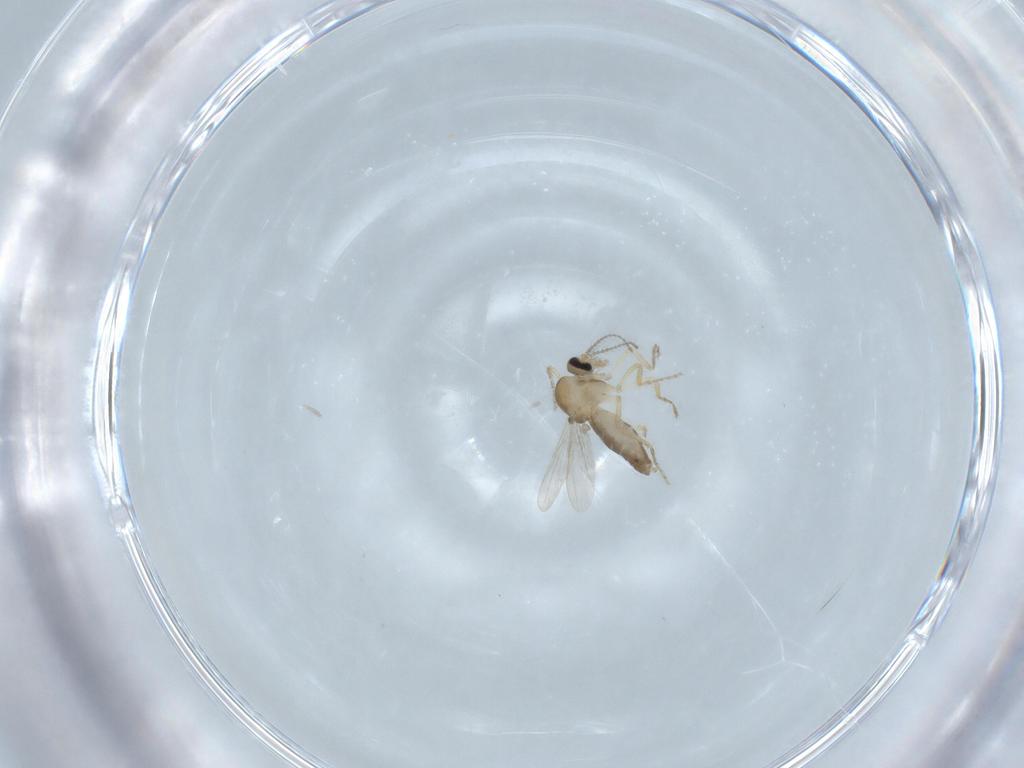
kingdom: Animalia
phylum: Arthropoda
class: Insecta
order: Diptera
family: Ceratopogonidae
